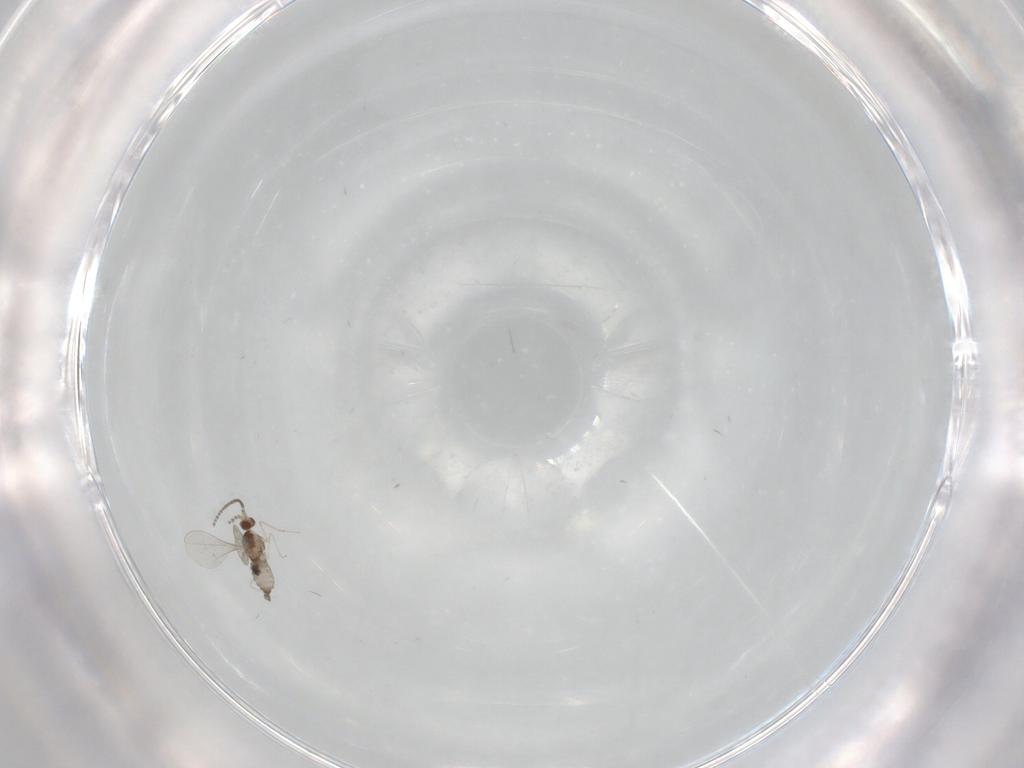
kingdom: Animalia
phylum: Arthropoda
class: Insecta
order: Diptera
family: Cecidomyiidae
